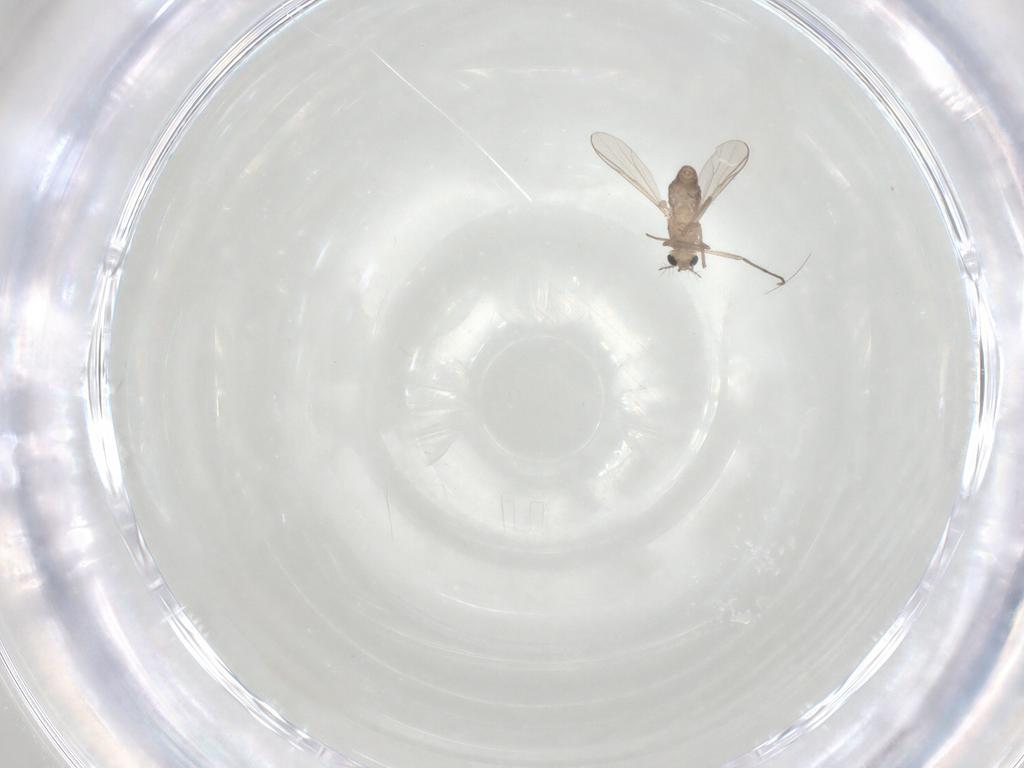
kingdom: Animalia
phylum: Arthropoda
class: Insecta
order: Diptera
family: Chironomidae
